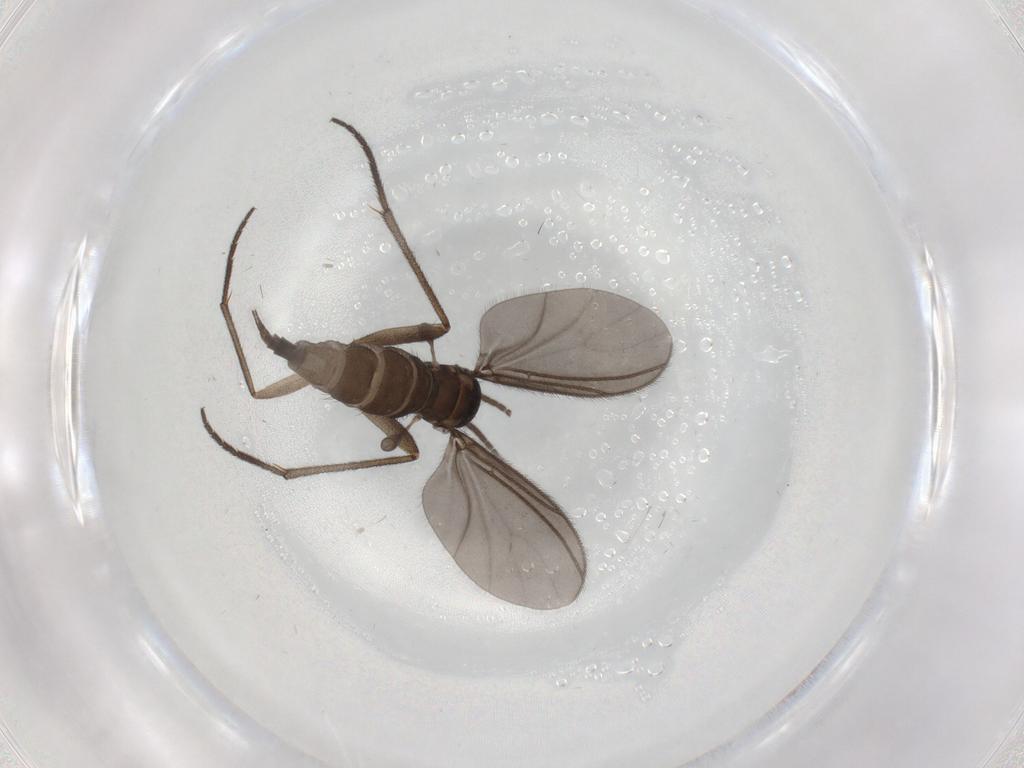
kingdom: Animalia
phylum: Arthropoda
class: Insecta
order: Diptera
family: Sciaridae
